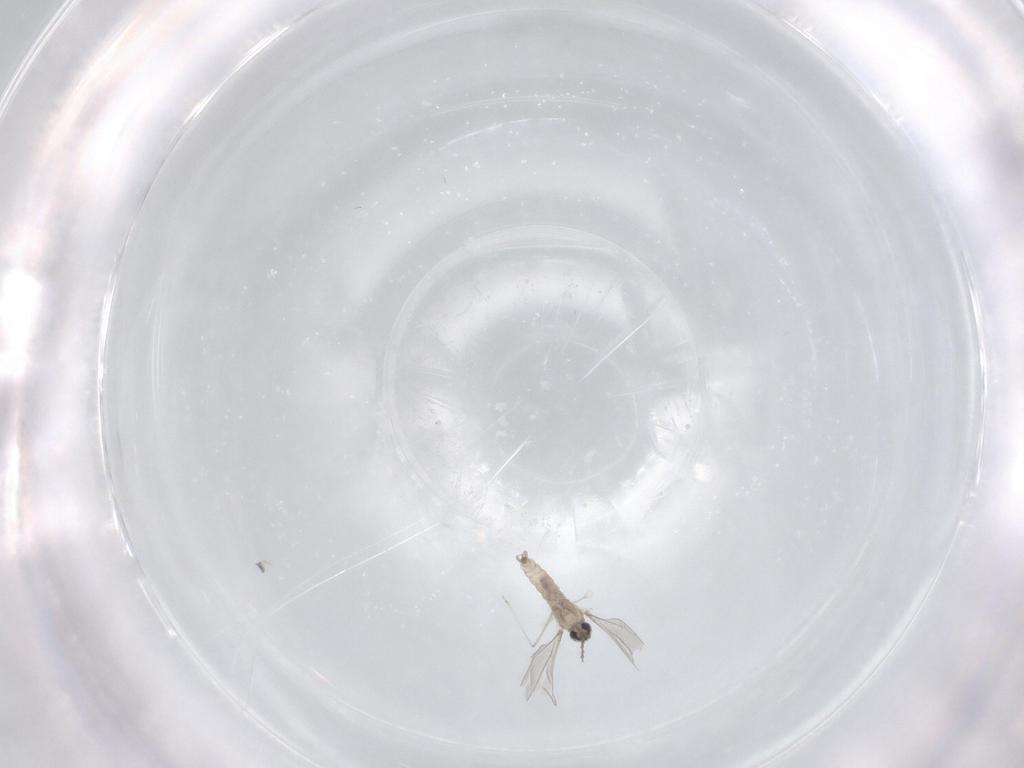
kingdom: Animalia
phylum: Arthropoda
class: Insecta
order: Diptera
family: Cecidomyiidae
